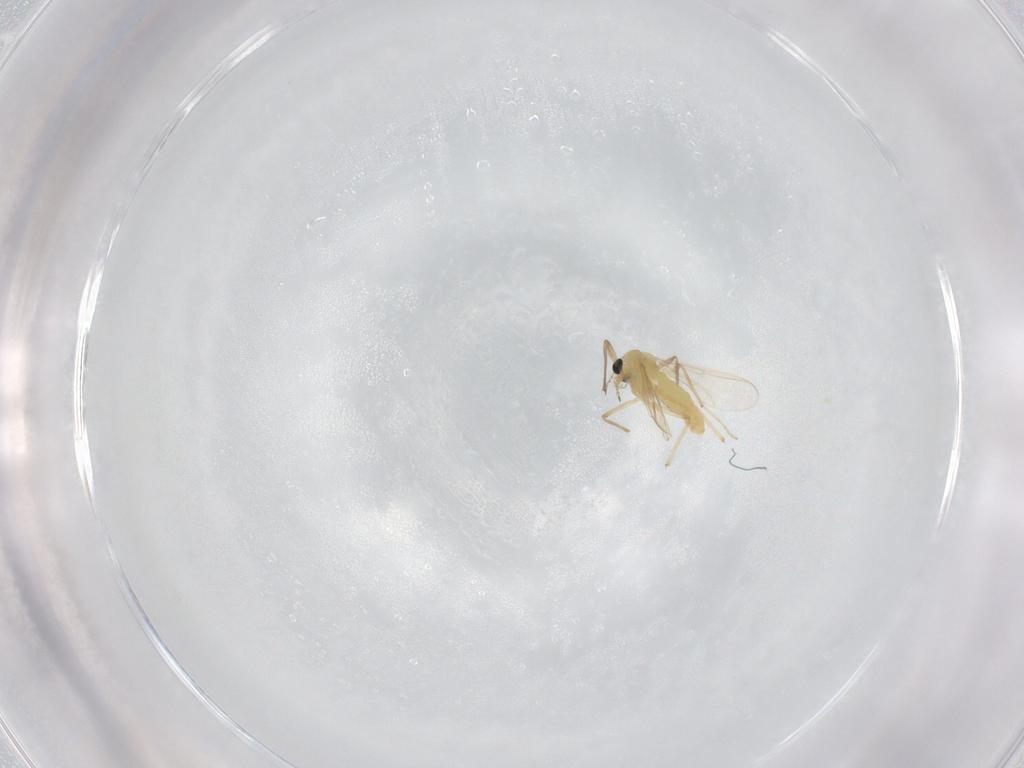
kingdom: Animalia
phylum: Arthropoda
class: Insecta
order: Diptera
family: Chironomidae
